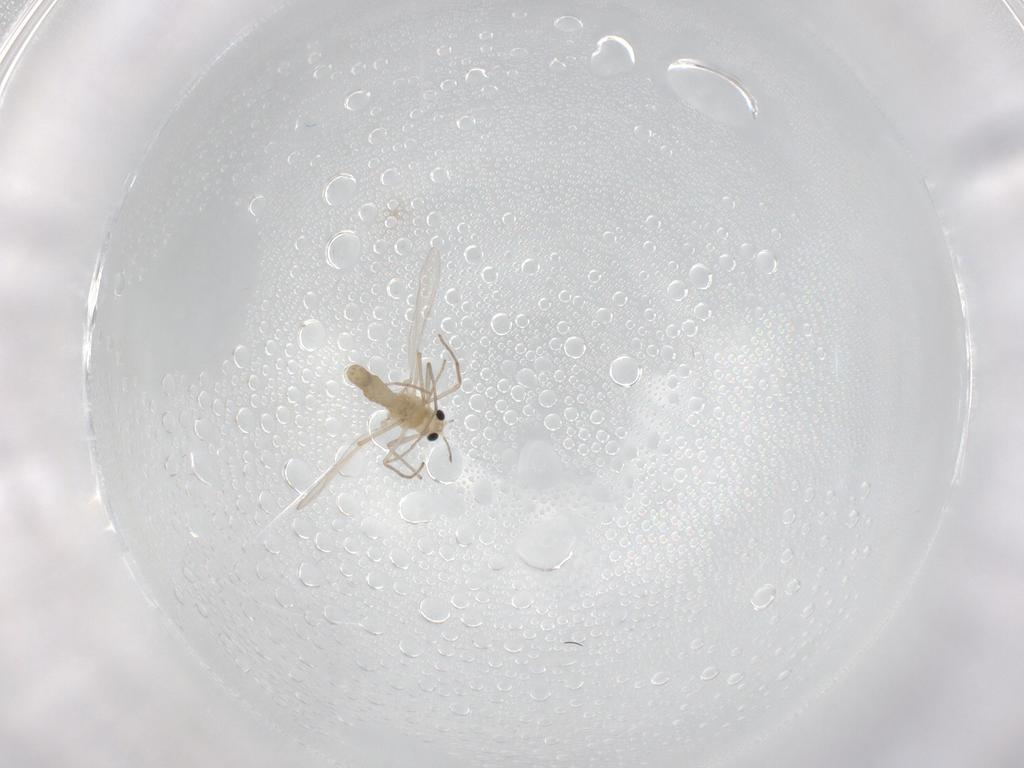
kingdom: Animalia
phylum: Arthropoda
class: Insecta
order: Diptera
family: Chironomidae
